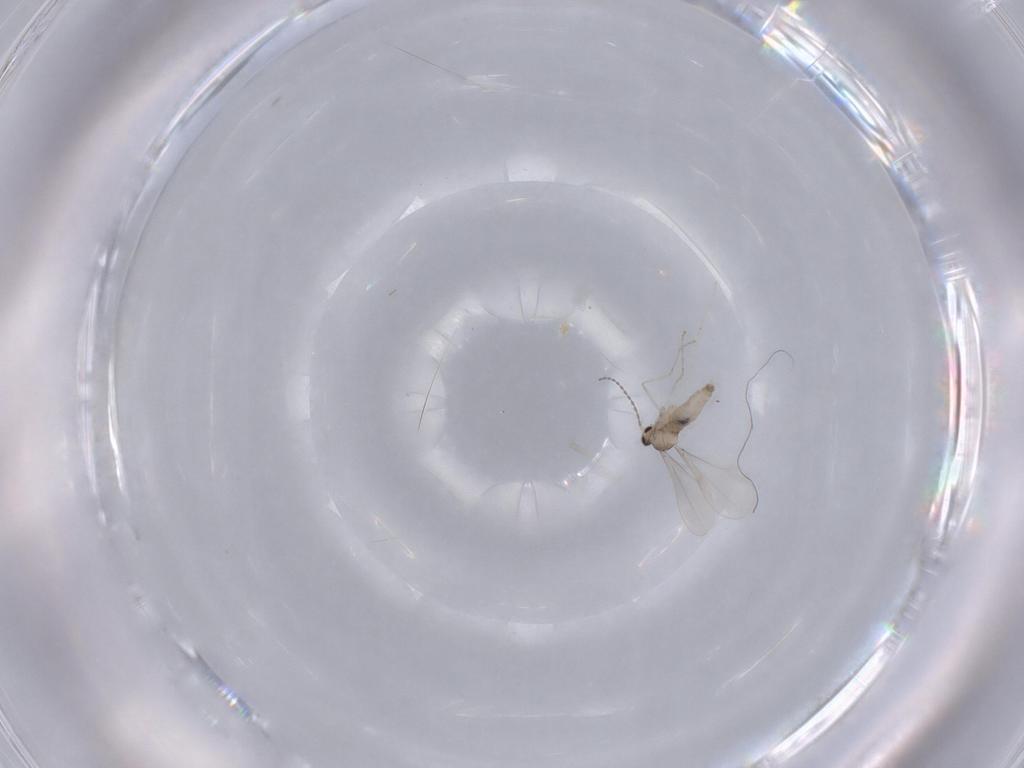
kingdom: Animalia
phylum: Arthropoda
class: Insecta
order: Diptera
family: Cecidomyiidae
